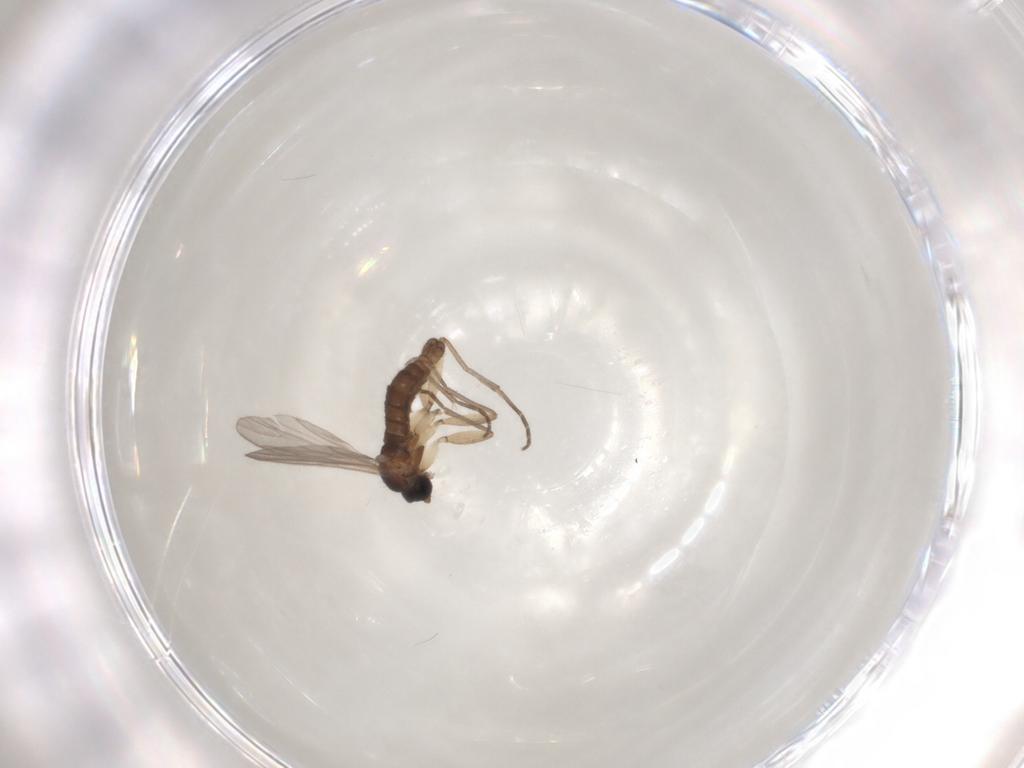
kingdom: Animalia
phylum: Arthropoda
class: Insecta
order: Diptera
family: Sciaridae
